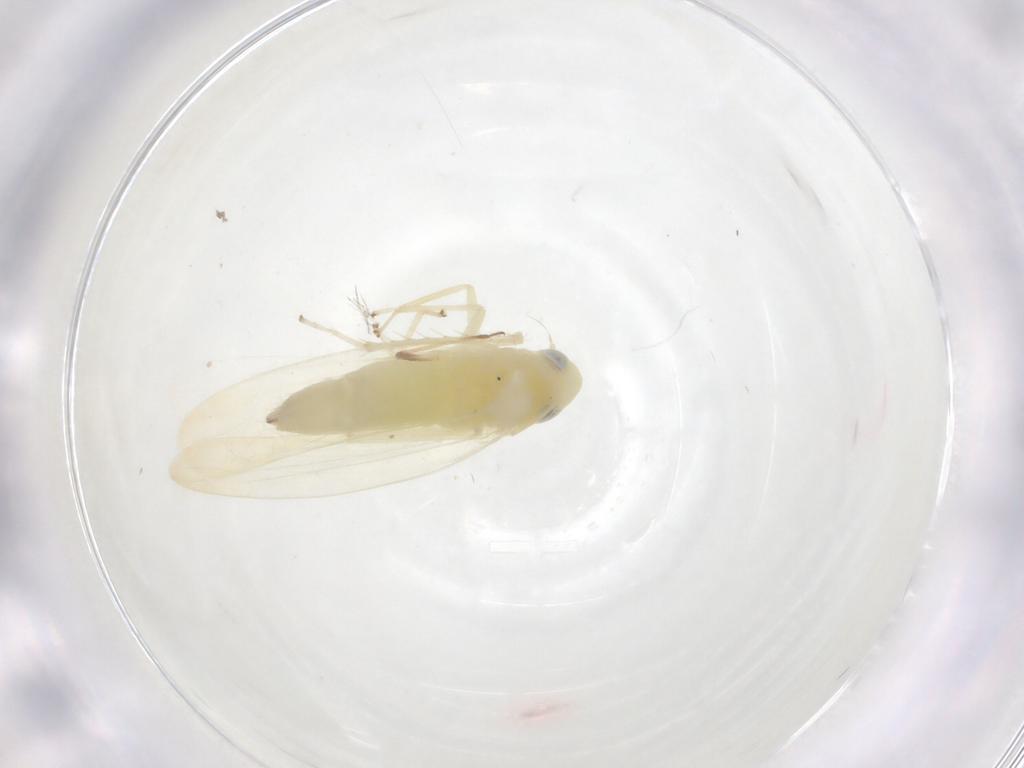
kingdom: Animalia
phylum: Arthropoda
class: Insecta
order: Hemiptera
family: Cicadellidae
